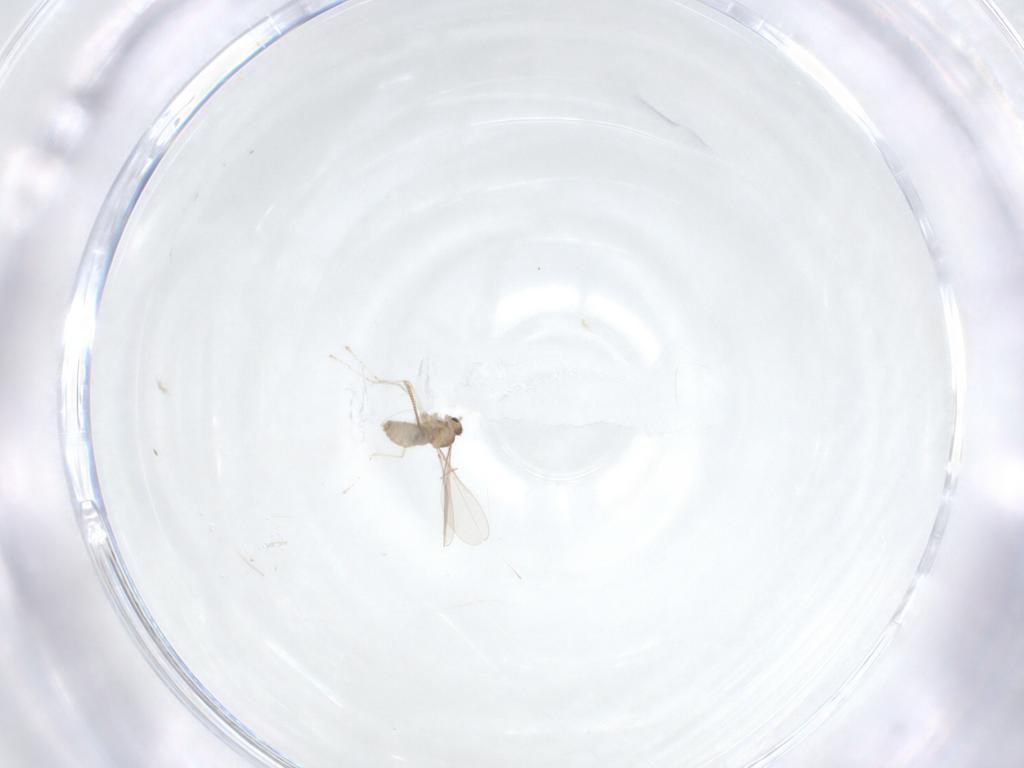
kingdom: Animalia
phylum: Arthropoda
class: Insecta
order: Diptera
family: Cecidomyiidae
